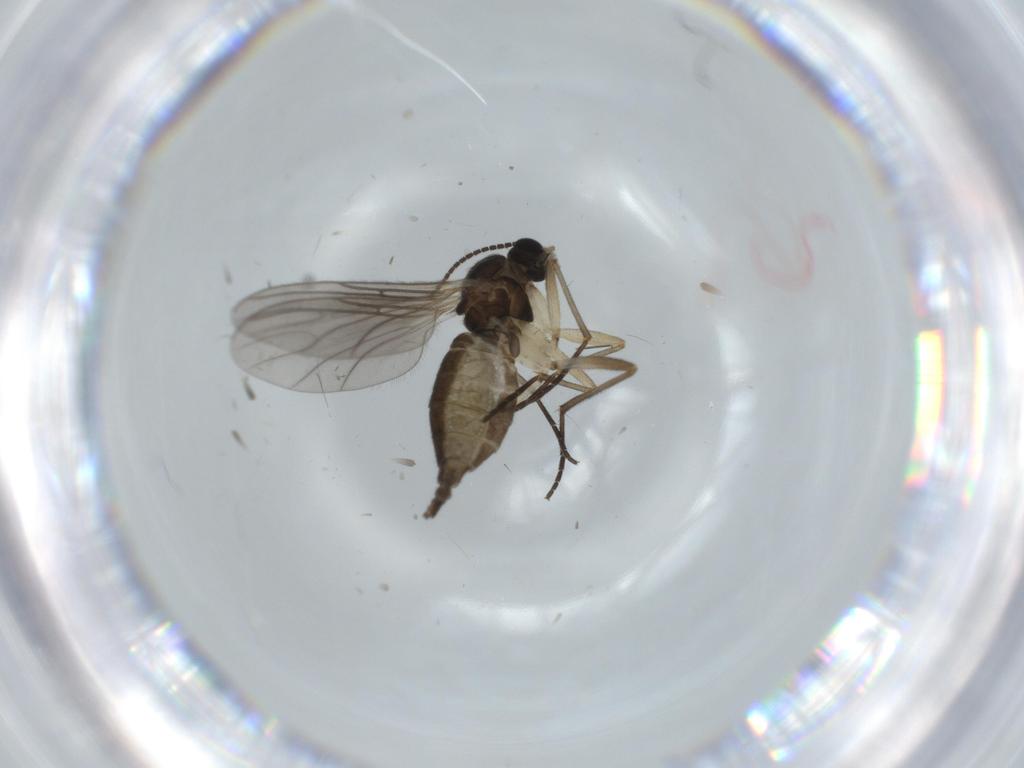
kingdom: Animalia
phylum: Arthropoda
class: Insecta
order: Diptera
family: Sciaridae
